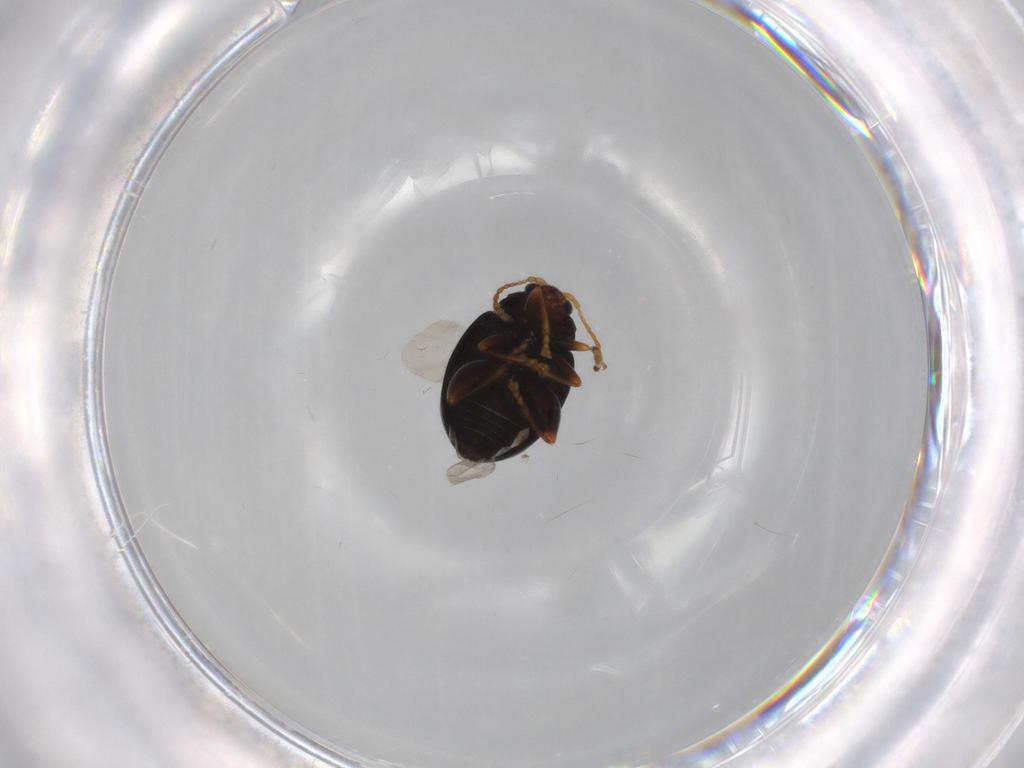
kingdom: Animalia
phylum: Arthropoda
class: Insecta
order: Coleoptera
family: Chrysomelidae
